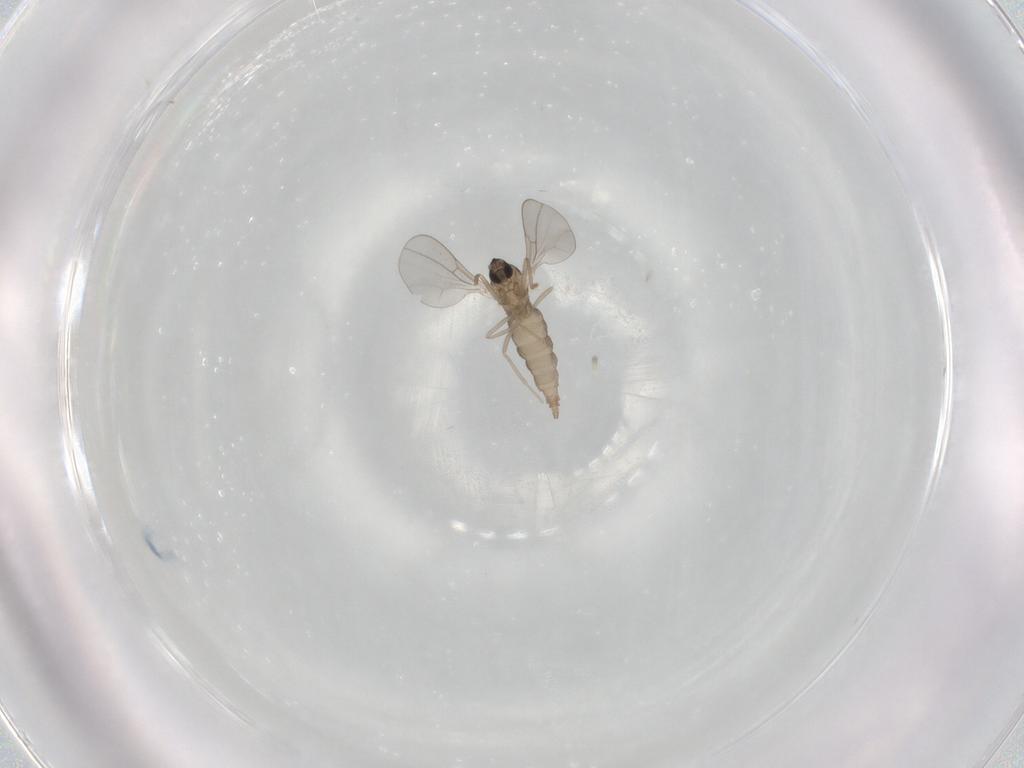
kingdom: Animalia
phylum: Arthropoda
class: Insecta
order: Diptera
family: Cecidomyiidae
